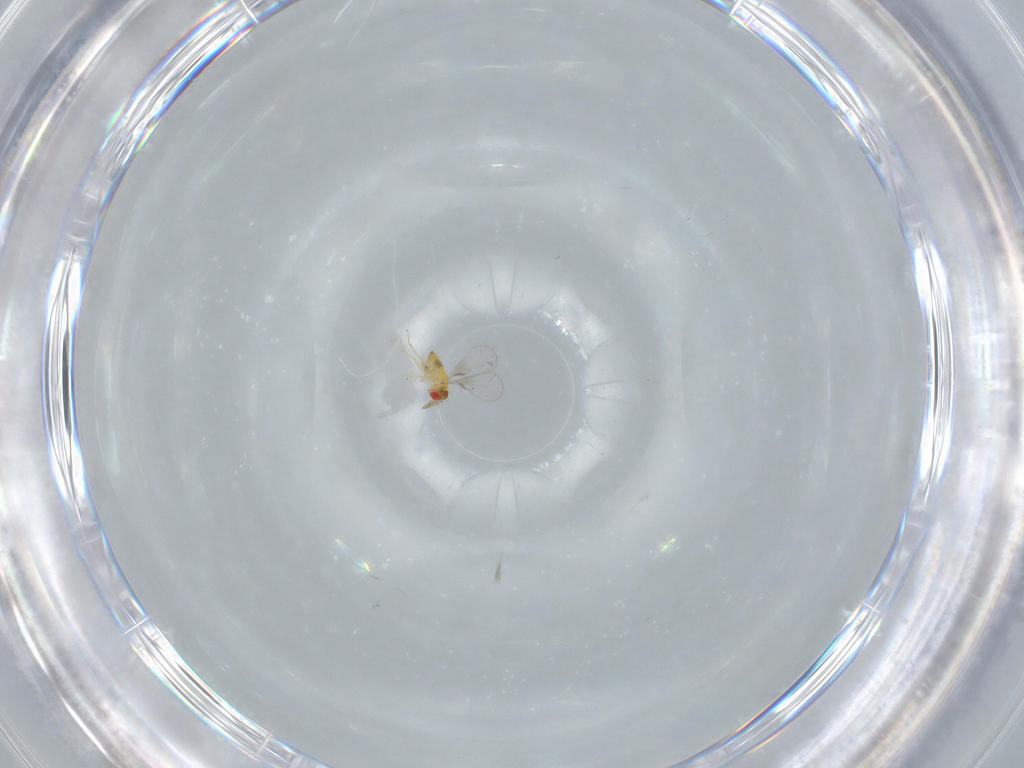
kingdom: Animalia
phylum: Arthropoda
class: Insecta
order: Hymenoptera
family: Trichogrammatidae
